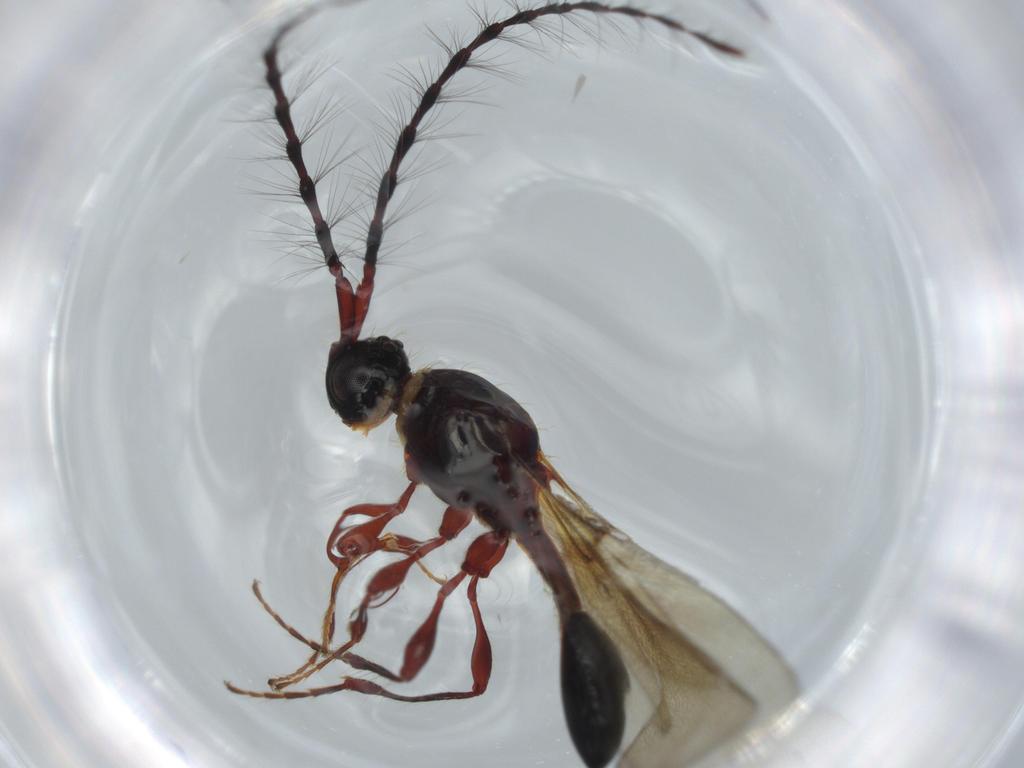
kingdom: Animalia
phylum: Arthropoda
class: Insecta
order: Hymenoptera
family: Diapriidae
